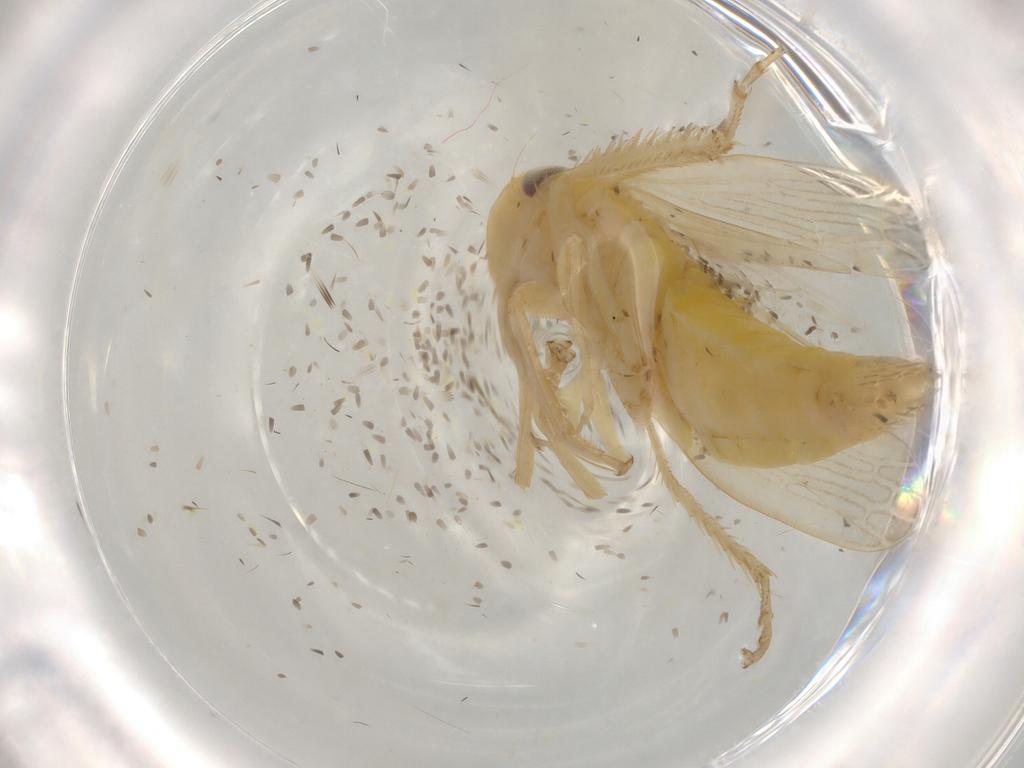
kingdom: Animalia
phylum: Arthropoda
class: Insecta
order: Hemiptera
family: Cicadellidae
